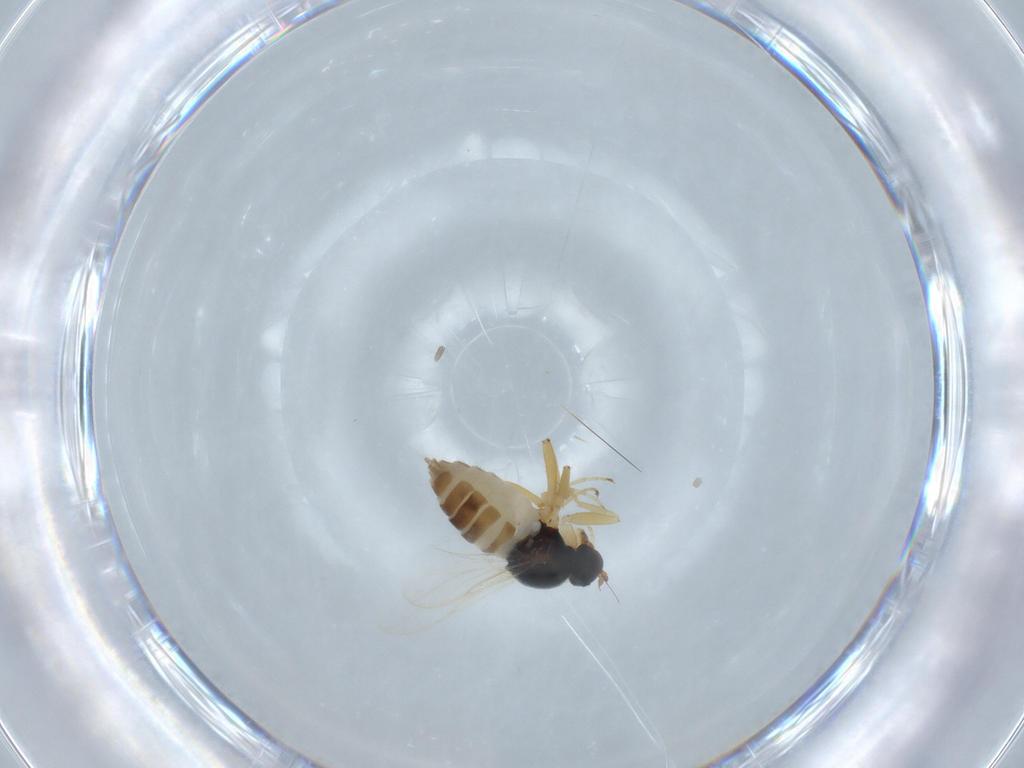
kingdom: Animalia
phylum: Arthropoda
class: Insecta
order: Diptera
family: Hybotidae
